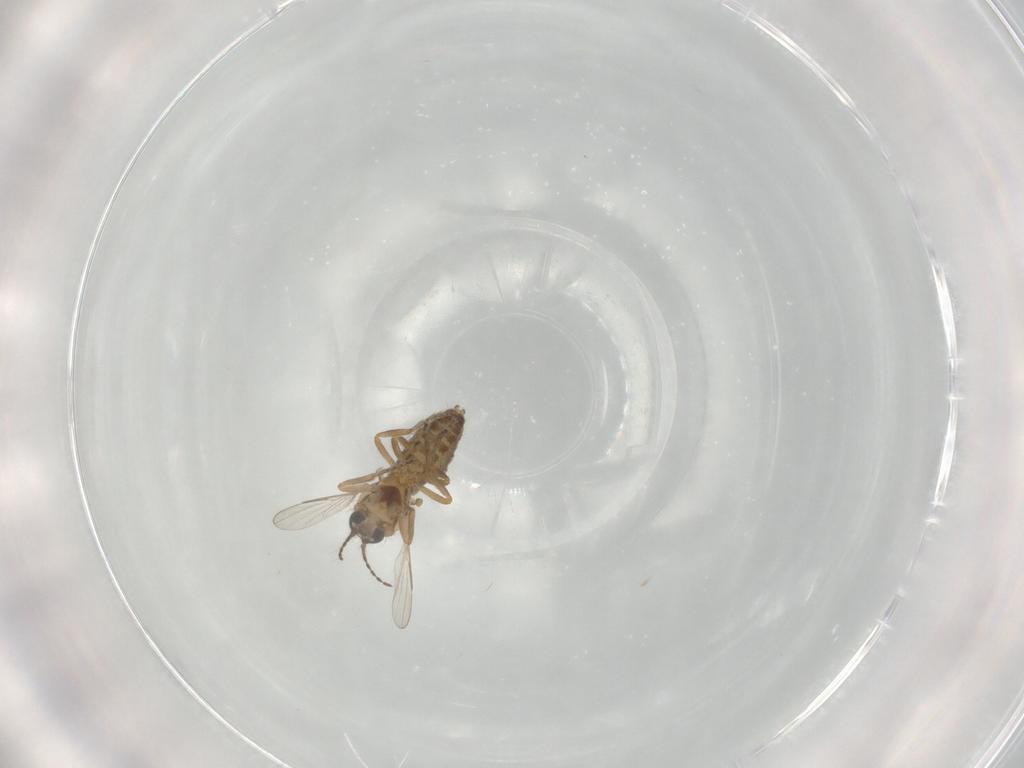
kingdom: Animalia
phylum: Arthropoda
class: Insecta
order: Diptera
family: Ceratopogonidae
